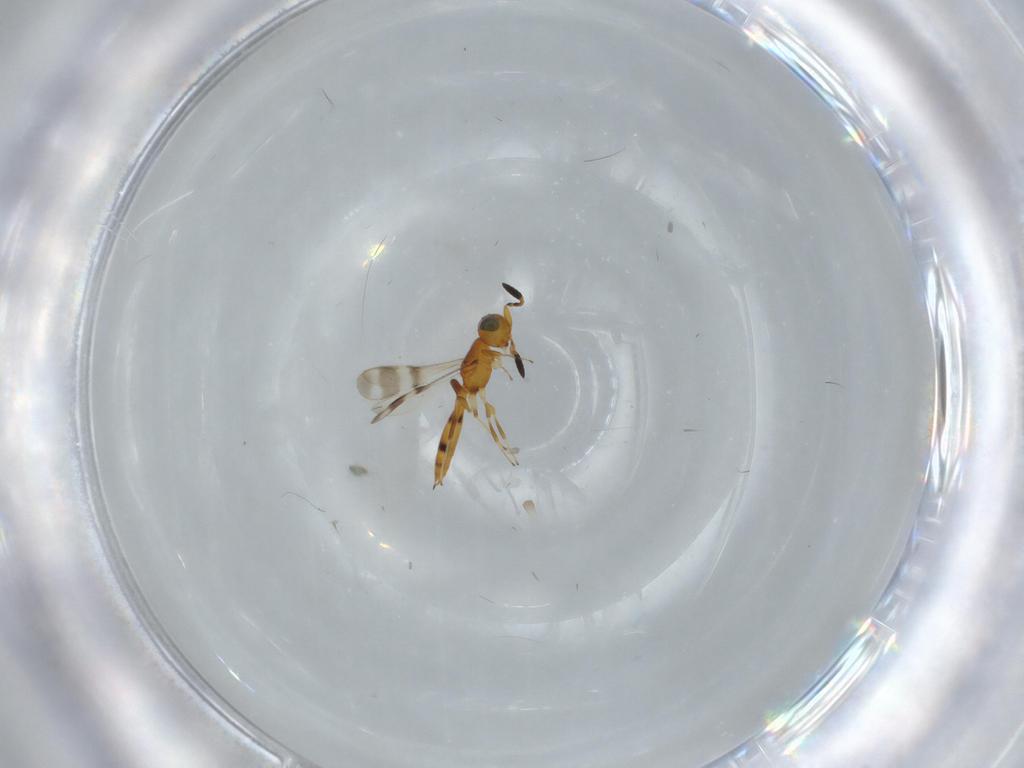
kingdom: Animalia
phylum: Arthropoda
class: Insecta
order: Hymenoptera
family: Scelionidae
